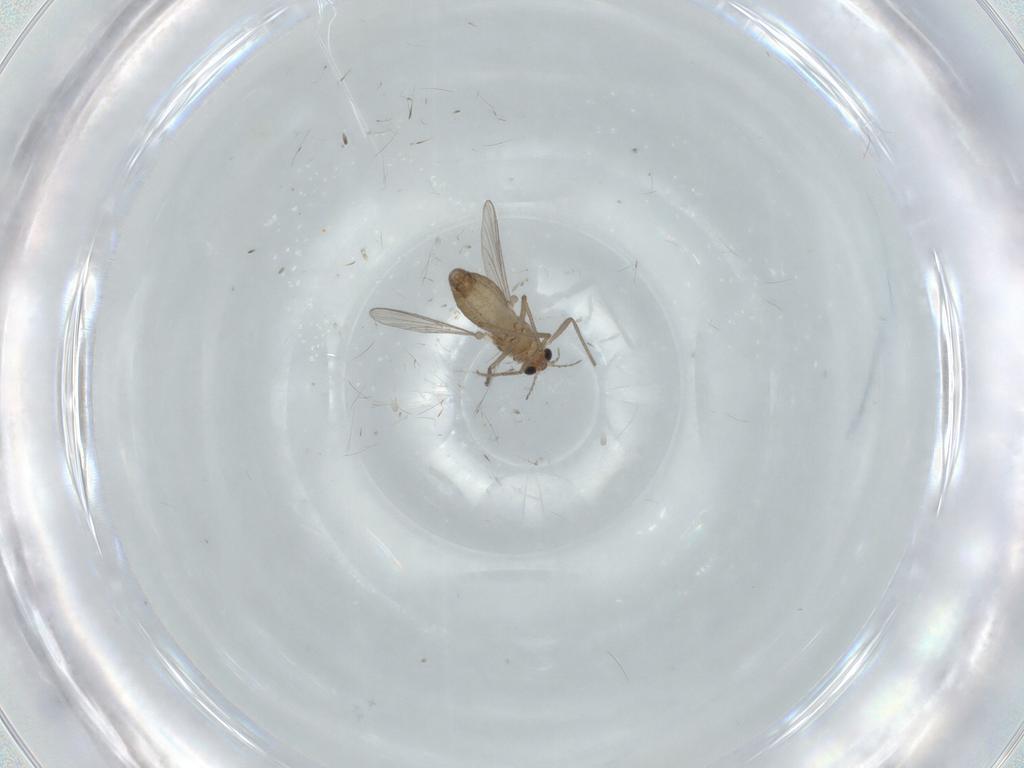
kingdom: Animalia
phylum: Arthropoda
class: Insecta
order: Diptera
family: Chironomidae
